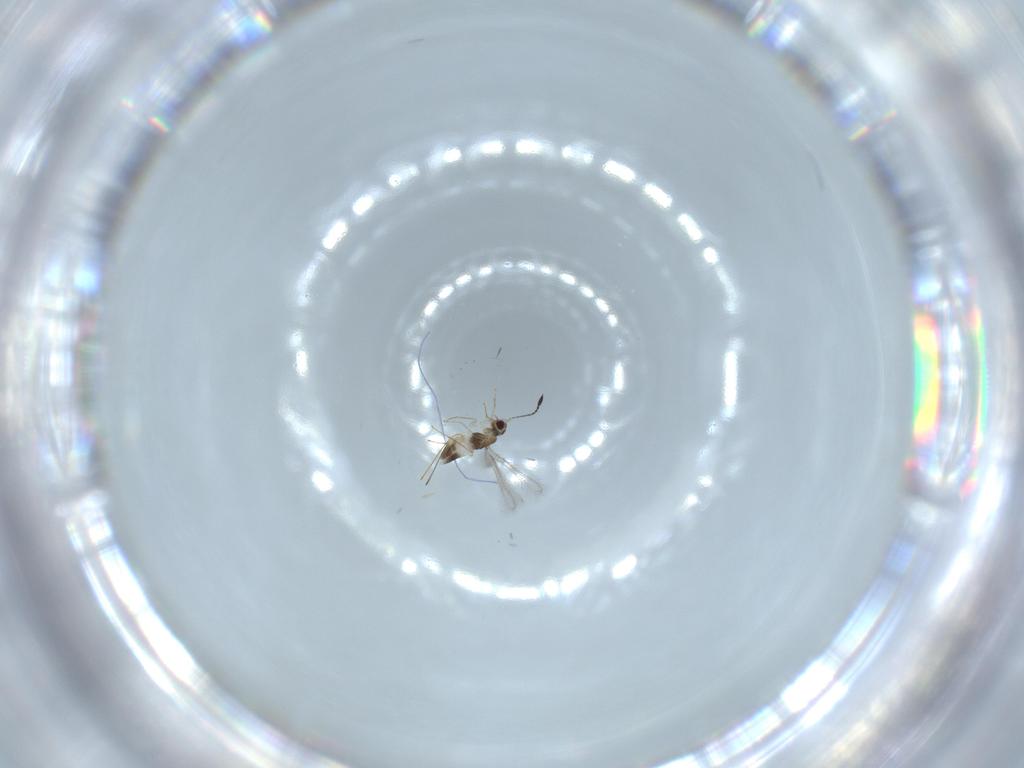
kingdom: Animalia
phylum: Arthropoda
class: Insecta
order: Hymenoptera
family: Mymaridae
